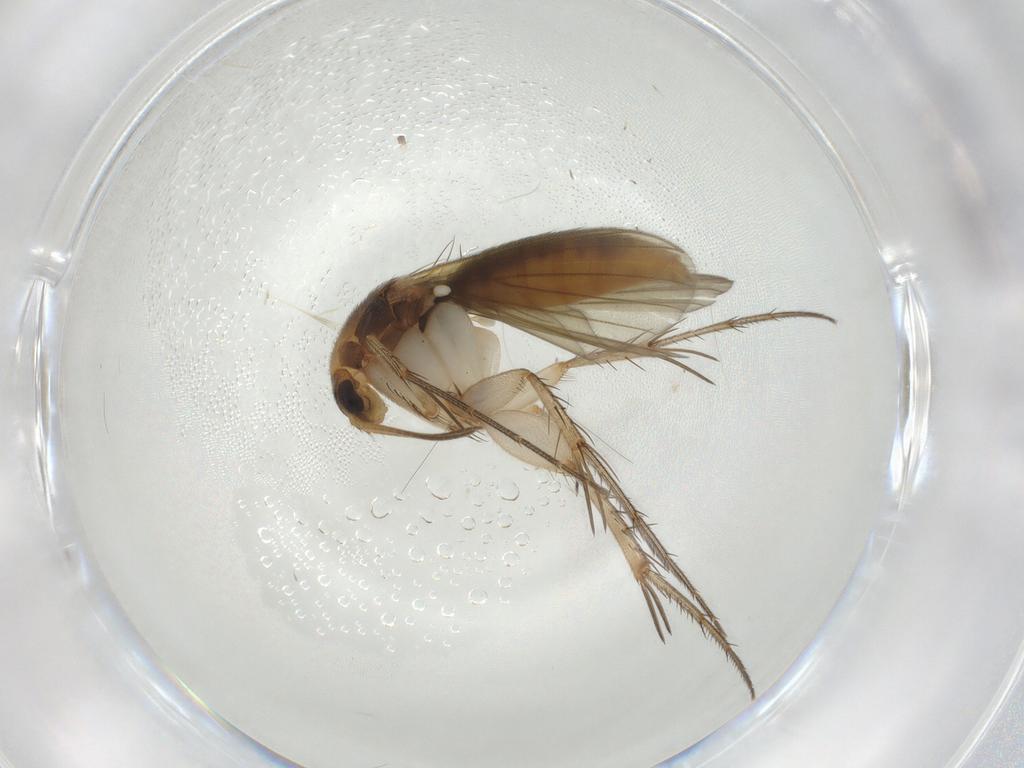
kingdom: Animalia
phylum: Arthropoda
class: Insecta
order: Diptera
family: Mycetophilidae
